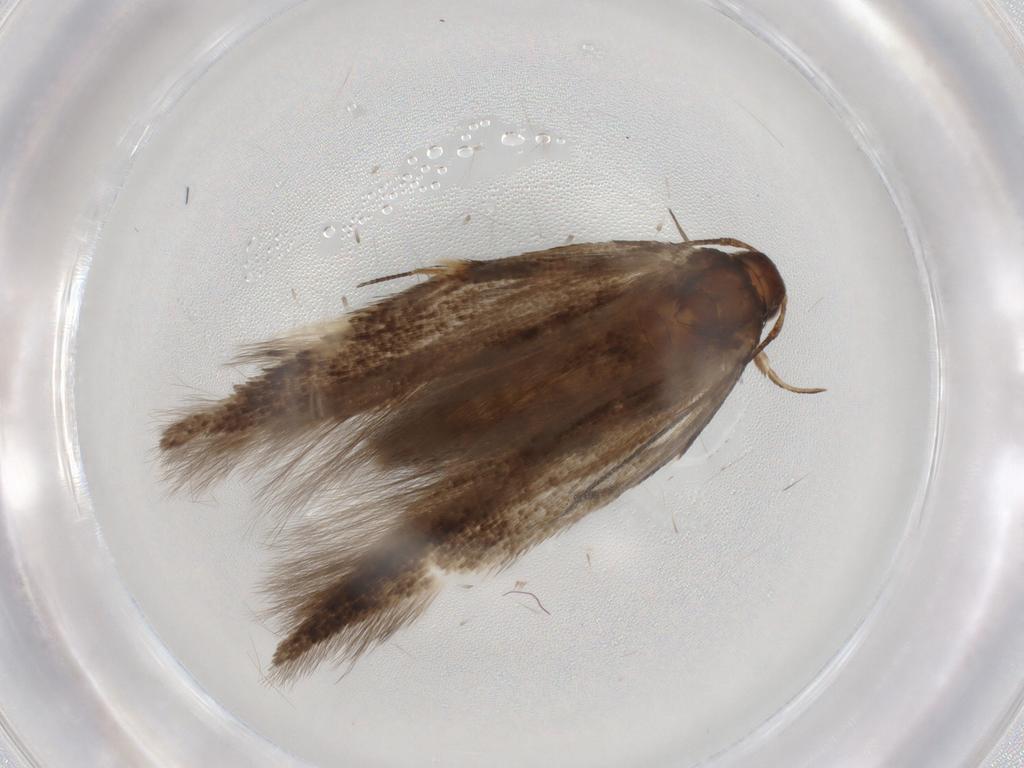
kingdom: Animalia
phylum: Arthropoda
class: Insecta
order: Lepidoptera
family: Gelechiidae
